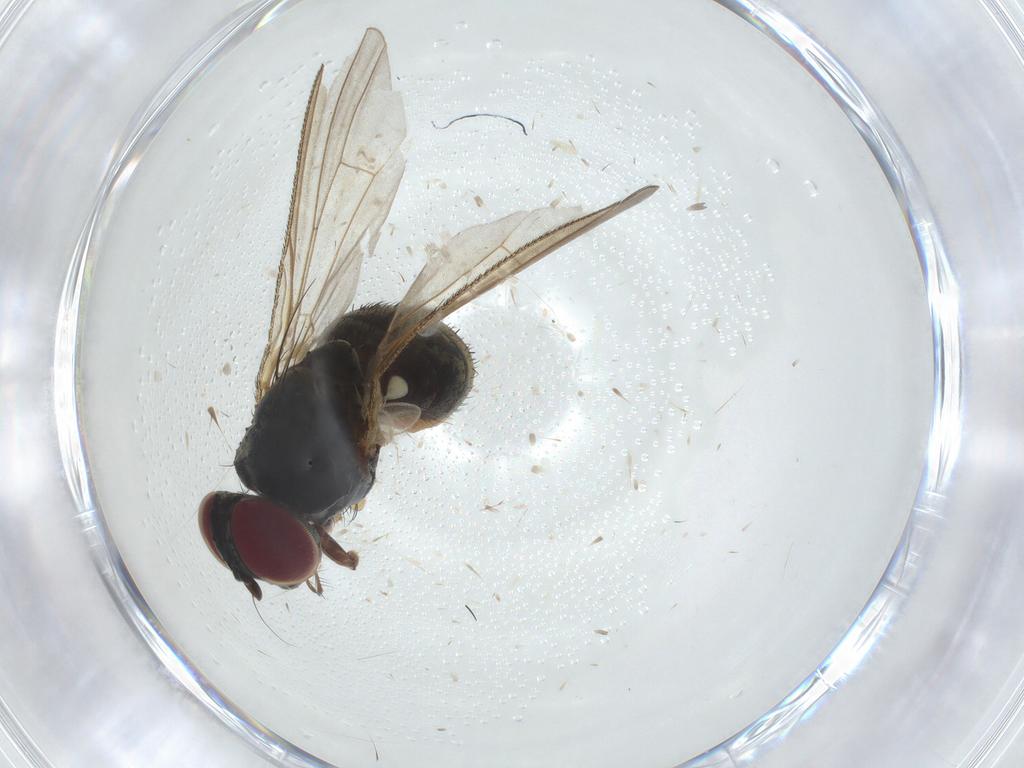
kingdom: Animalia
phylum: Arthropoda
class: Insecta
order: Diptera
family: Muscidae
